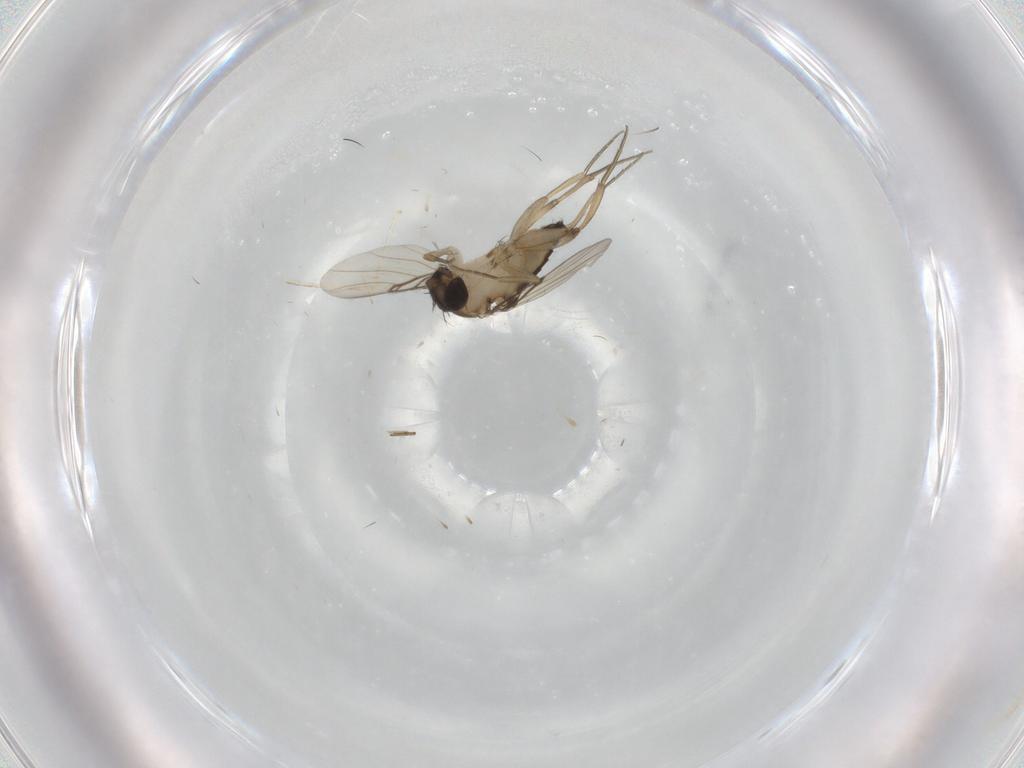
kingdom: Animalia
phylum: Arthropoda
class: Insecta
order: Diptera
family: Phoridae
